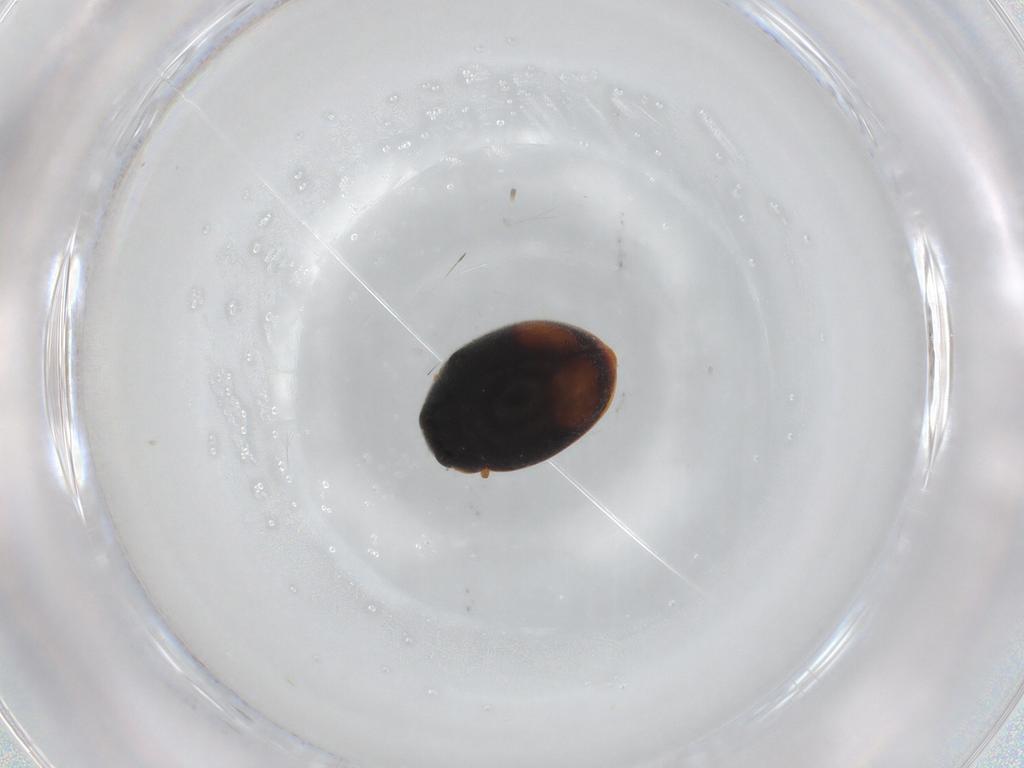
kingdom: Animalia
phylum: Arthropoda
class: Insecta
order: Coleoptera
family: Coccinellidae
